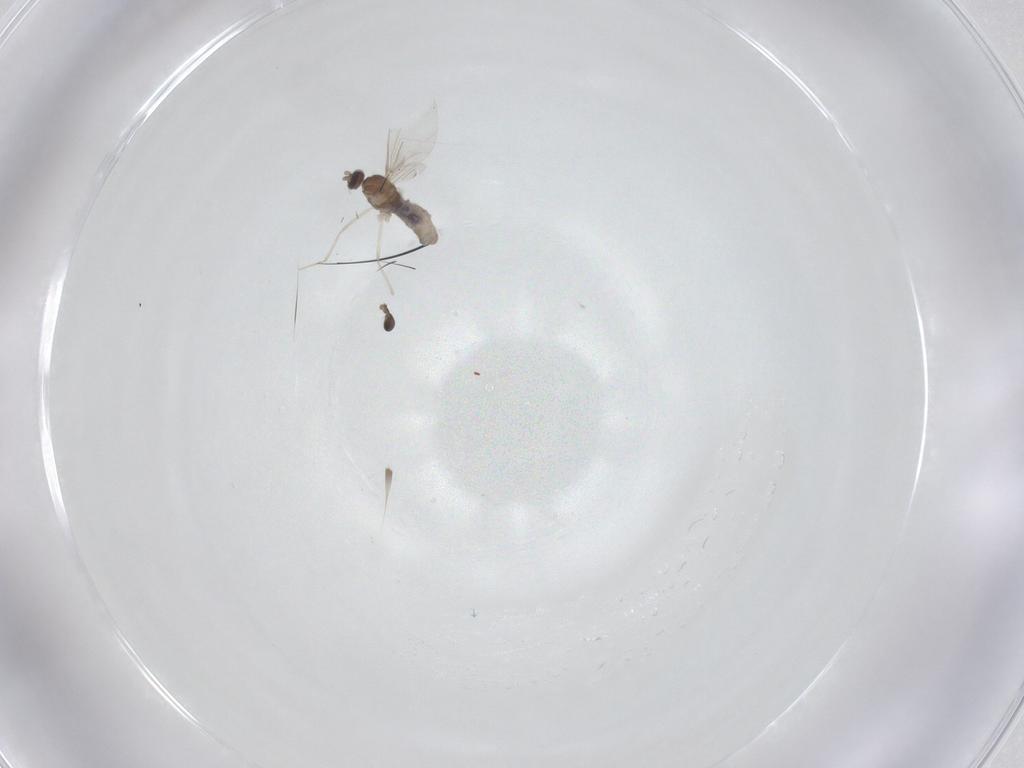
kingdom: Animalia
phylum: Arthropoda
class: Insecta
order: Diptera
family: Cecidomyiidae
